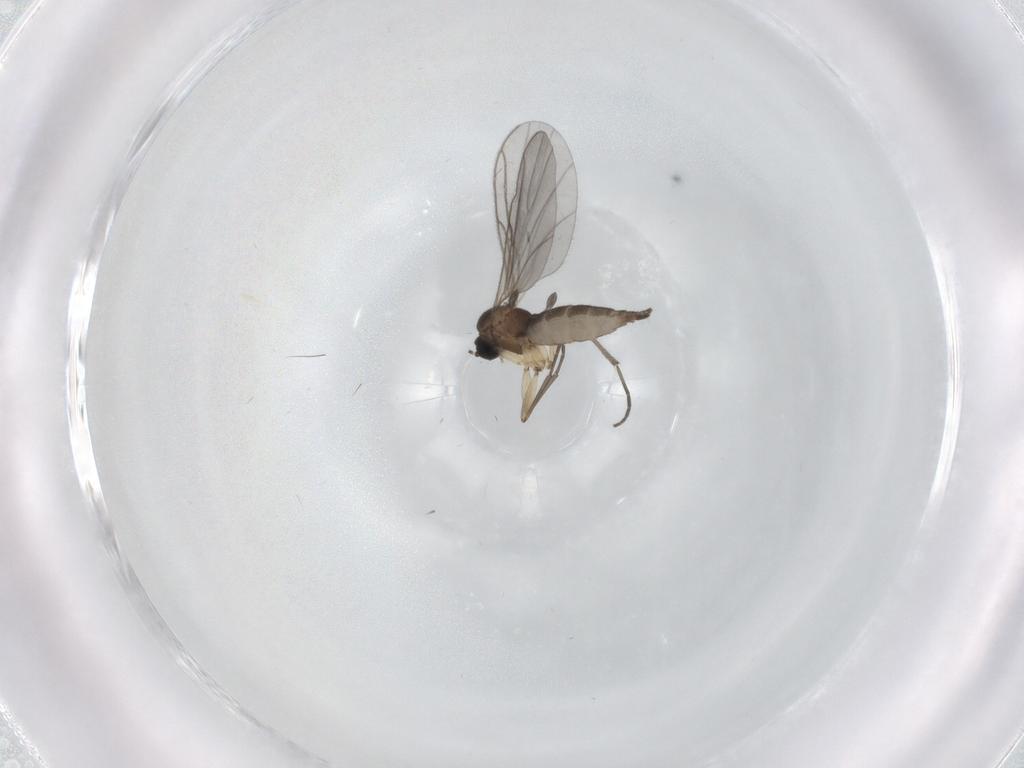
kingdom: Animalia
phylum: Arthropoda
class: Insecta
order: Diptera
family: Sciaridae
